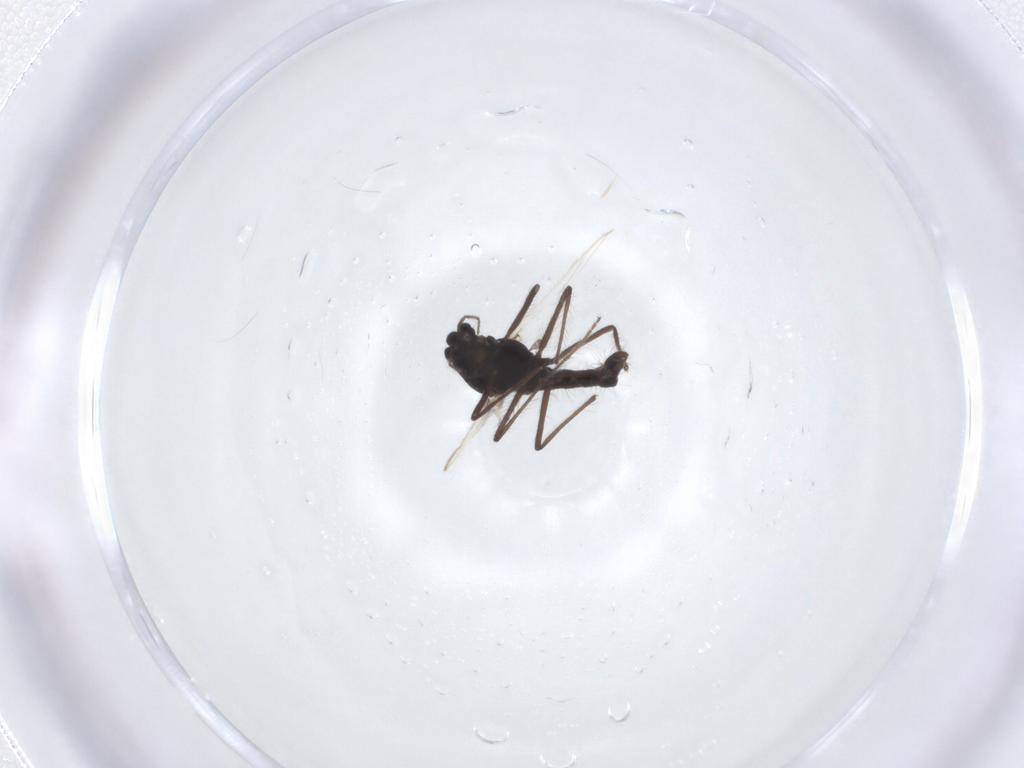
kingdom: Animalia
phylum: Arthropoda
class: Insecta
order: Diptera
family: Chironomidae
